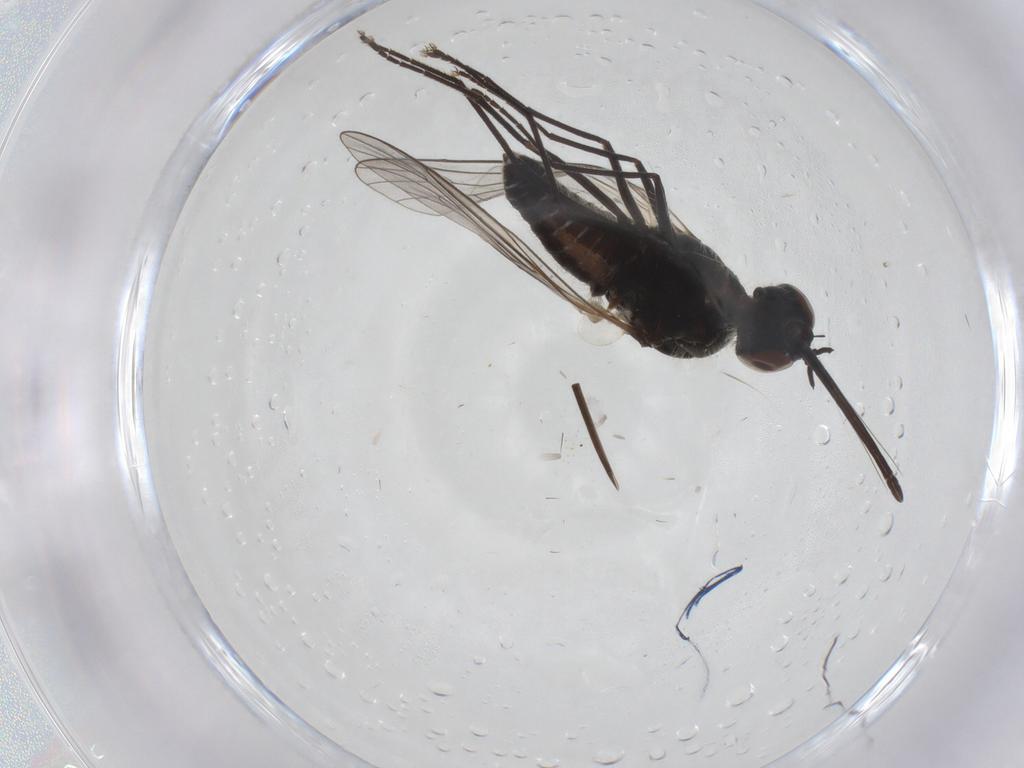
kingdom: Animalia
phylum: Arthropoda
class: Insecta
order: Diptera
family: Bombyliidae
